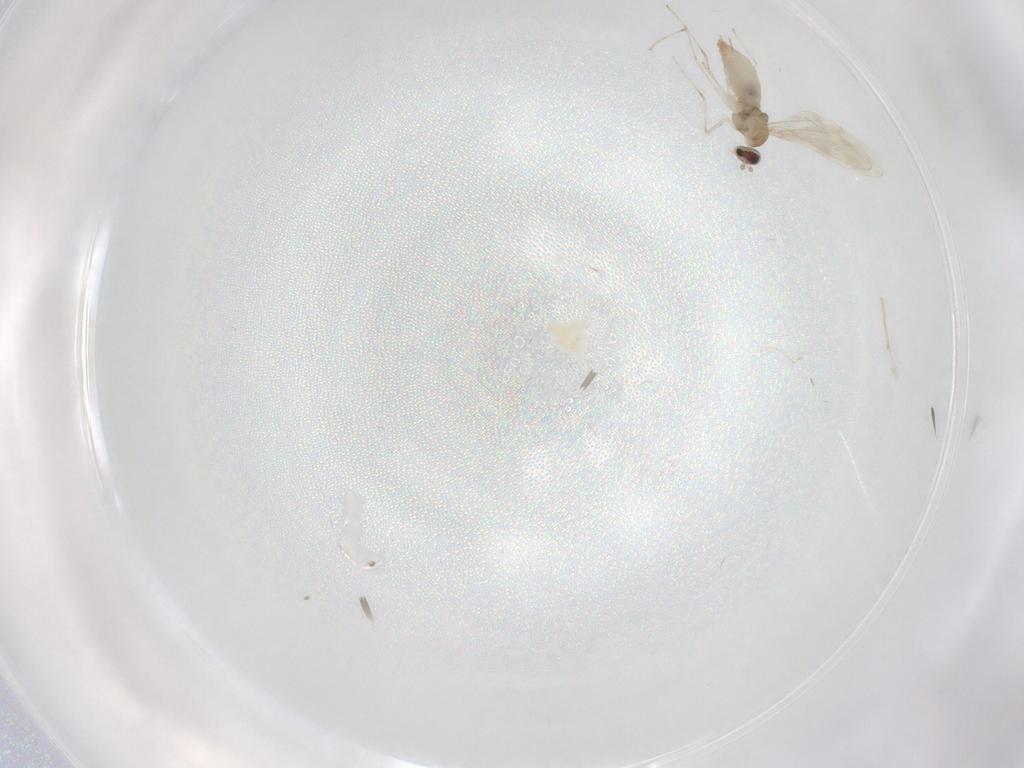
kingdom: Animalia
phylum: Arthropoda
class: Insecta
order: Diptera
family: Cecidomyiidae
